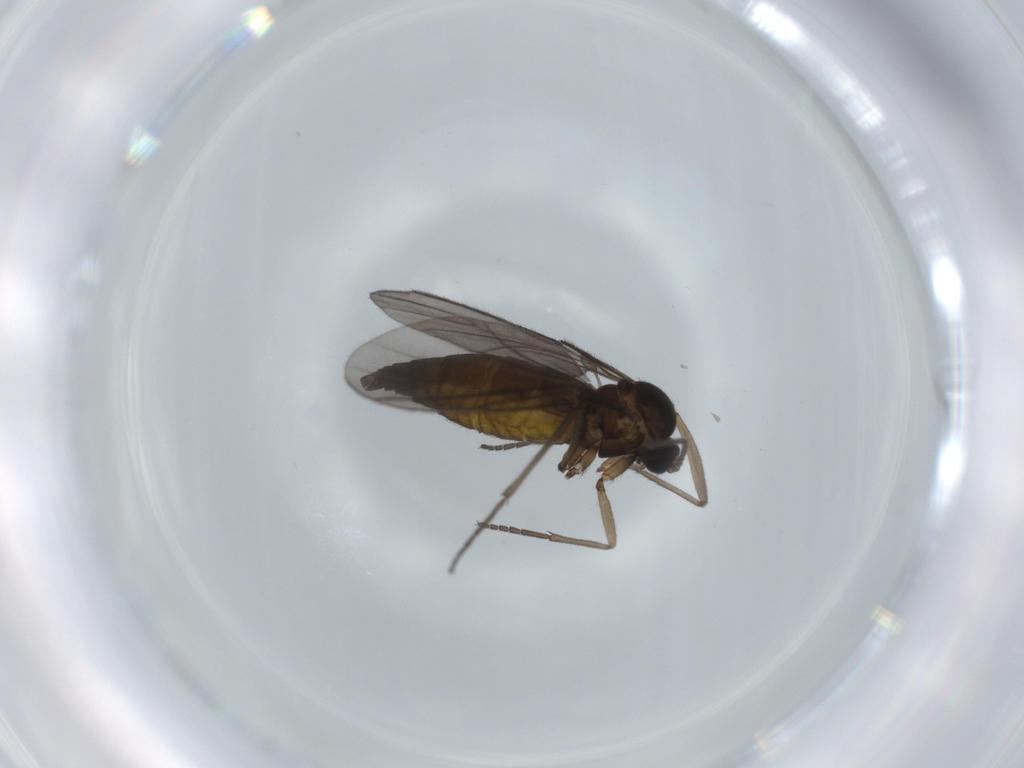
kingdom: Animalia
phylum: Arthropoda
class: Insecta
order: Diptera
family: Sciaridae
